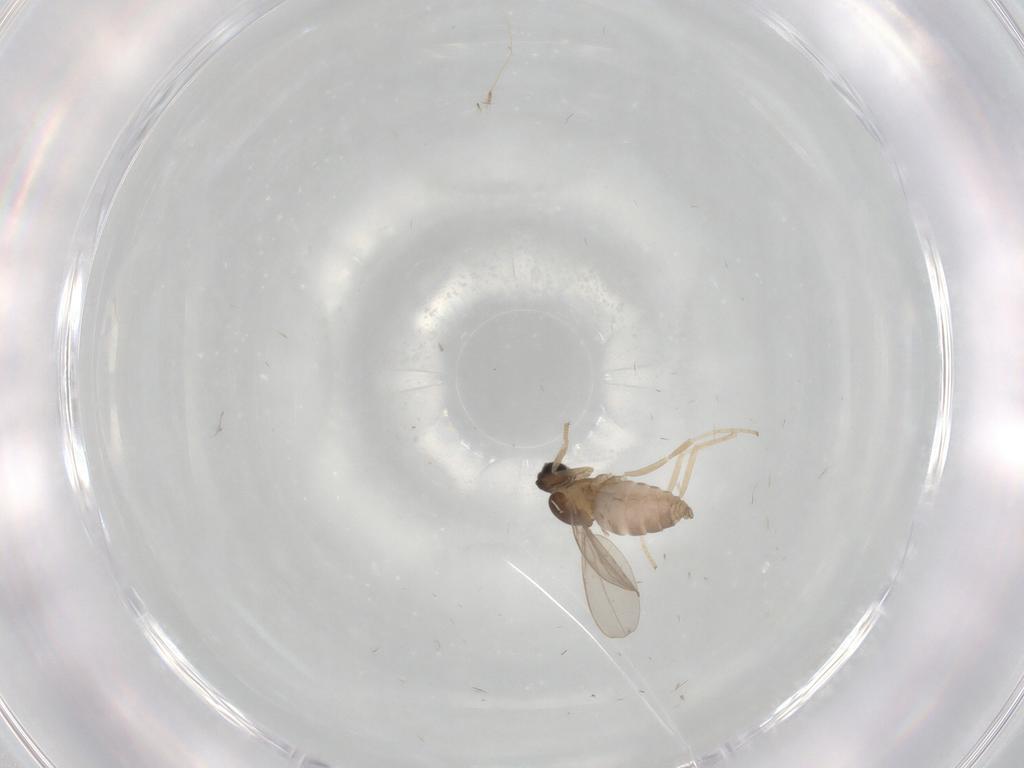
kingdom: Animalia
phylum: Arthropoda
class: Insecta
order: Diptera
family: Cecidomyiidae
